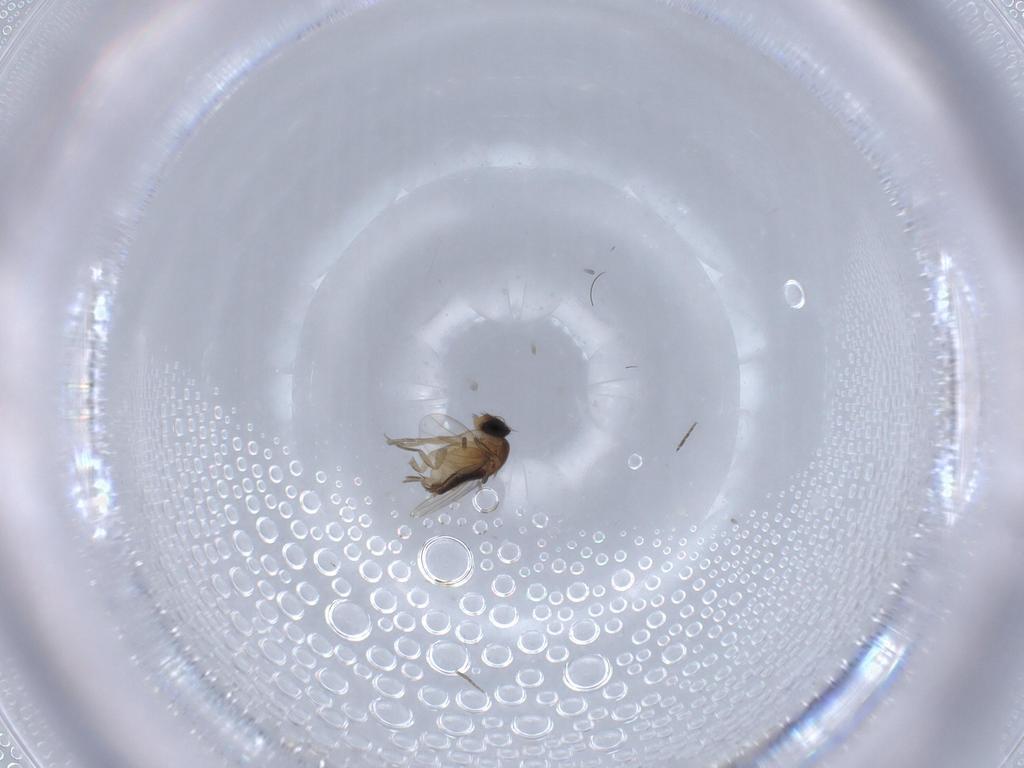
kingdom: Animalia
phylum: Arthropoda
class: Insecta
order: Diptera
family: Phoridae
